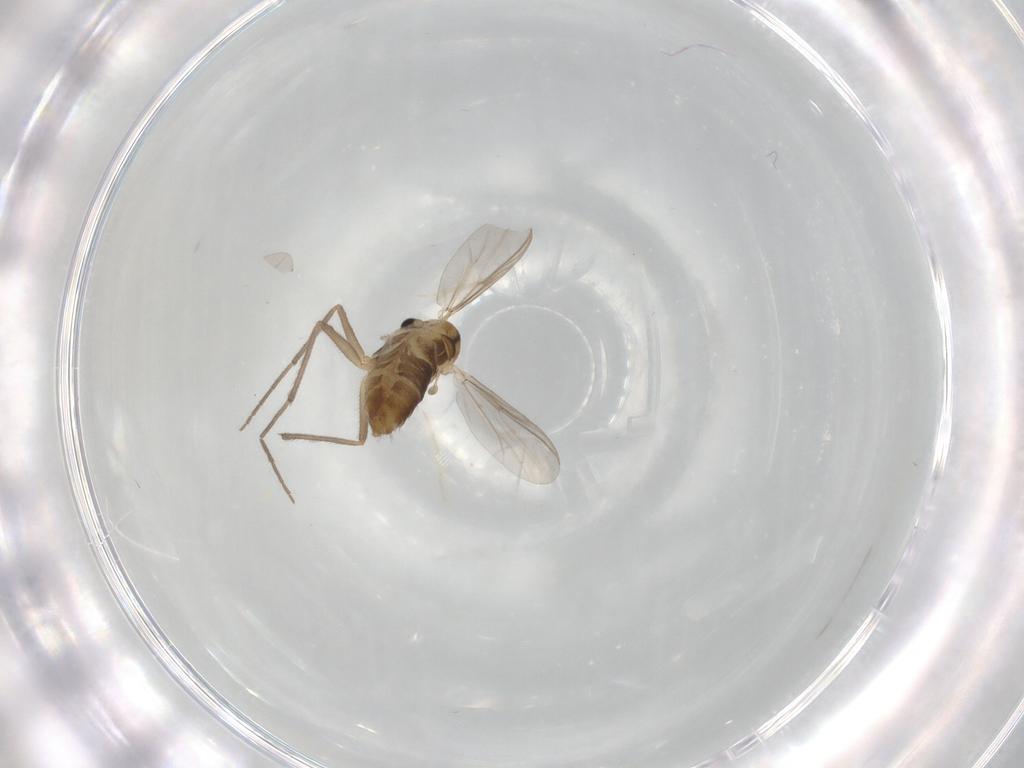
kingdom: Animalia
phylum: Arthropoda
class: Insecta
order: Diptera
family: Chironomidae
